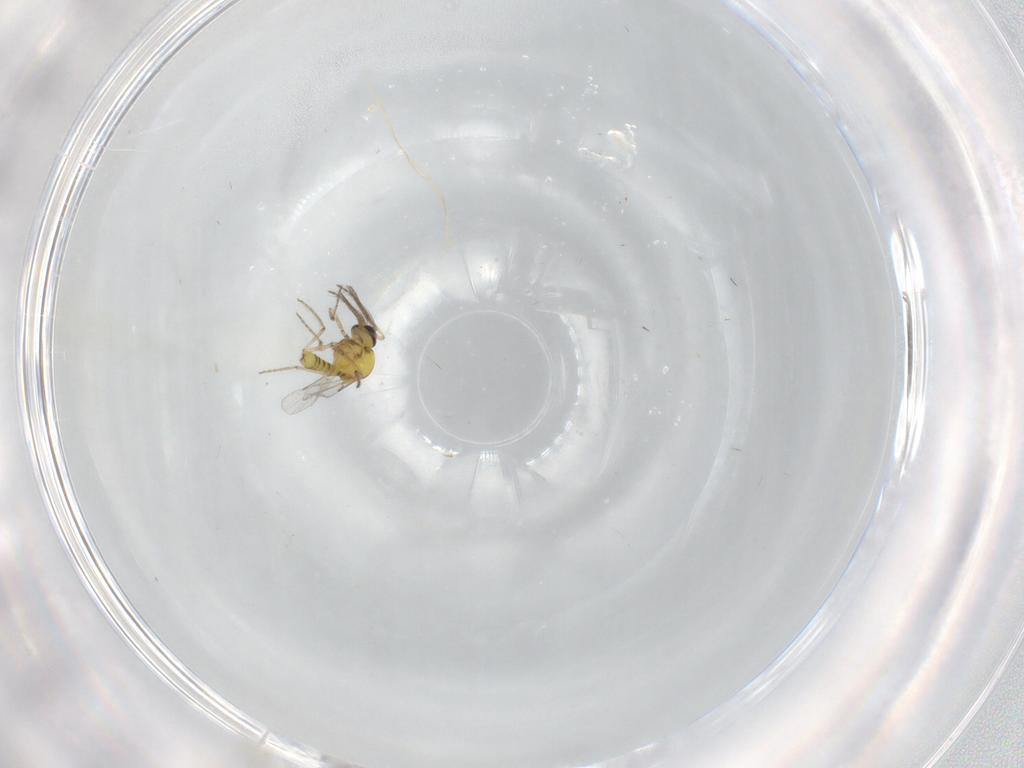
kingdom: Animalia
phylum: Arthropoda
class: Insecta
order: Diptera
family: Ceratopogonidae
